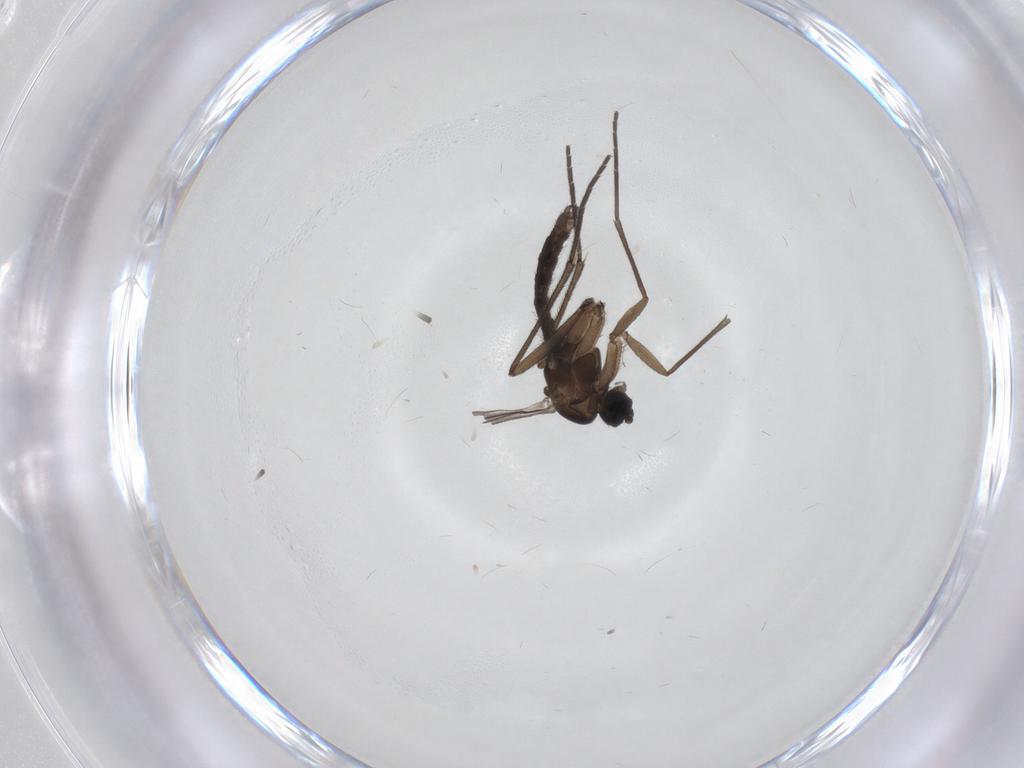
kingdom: Animalia
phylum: Arthropoda
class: Insecta
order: Diptera
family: Sciaridae
